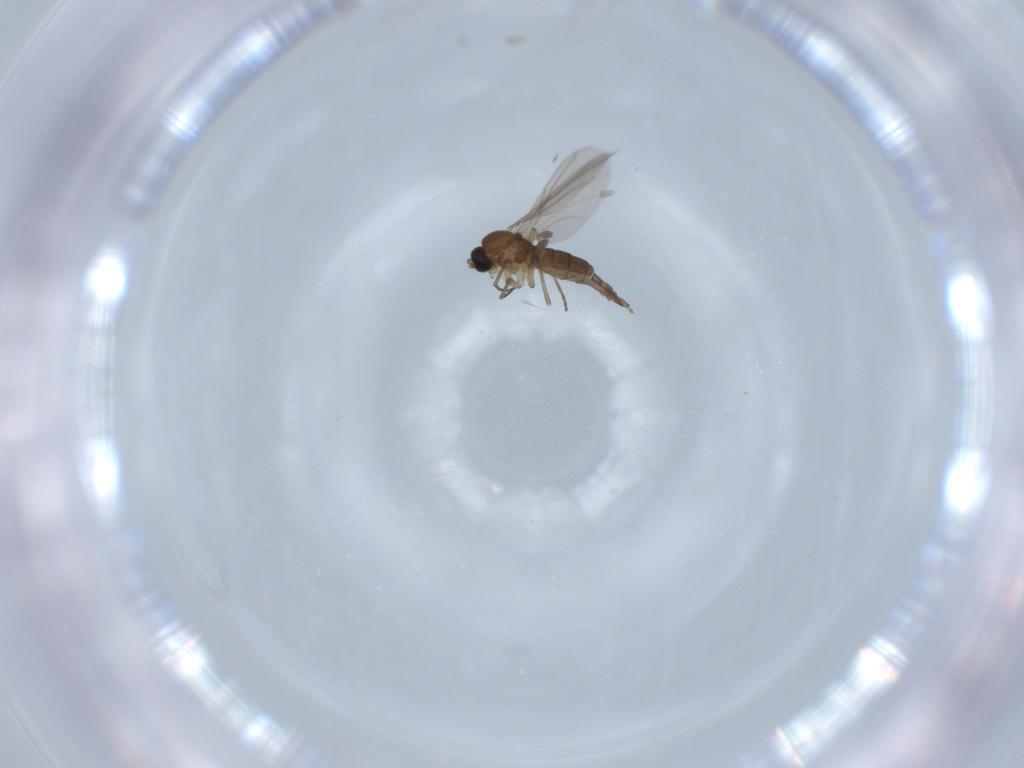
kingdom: Animalia
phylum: Arthropoda
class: Insecta
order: Diptera
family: Sciaridae
